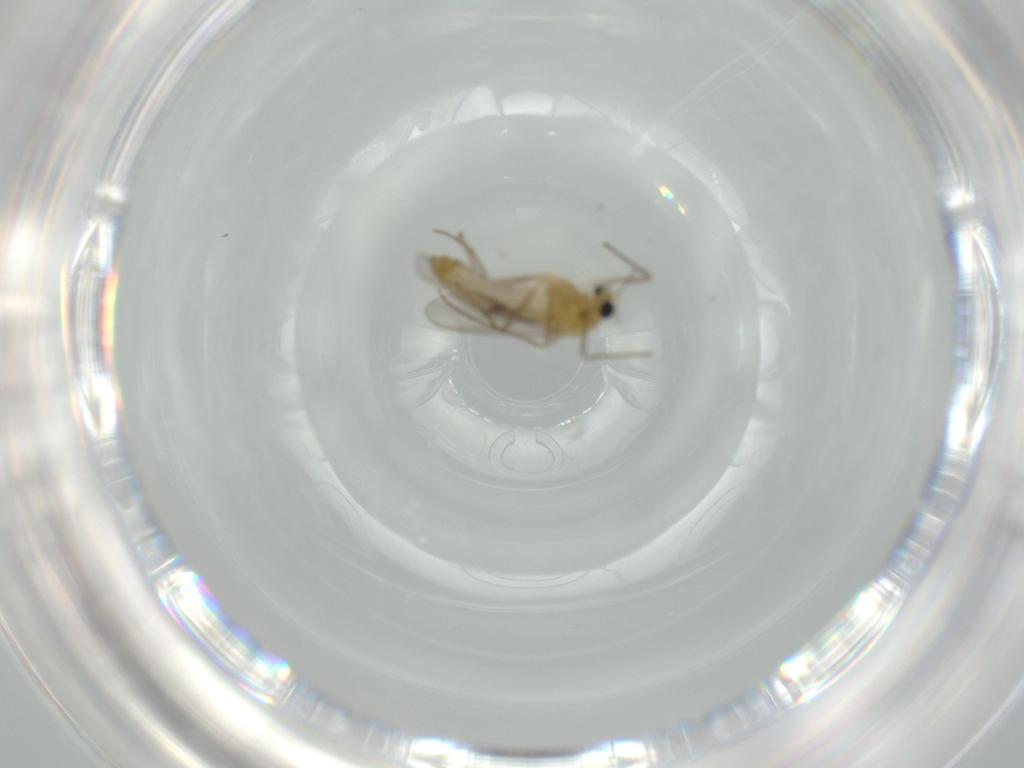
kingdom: Animalia
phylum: Arthropoda
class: Insecta
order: Diptera
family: Chironomidae
